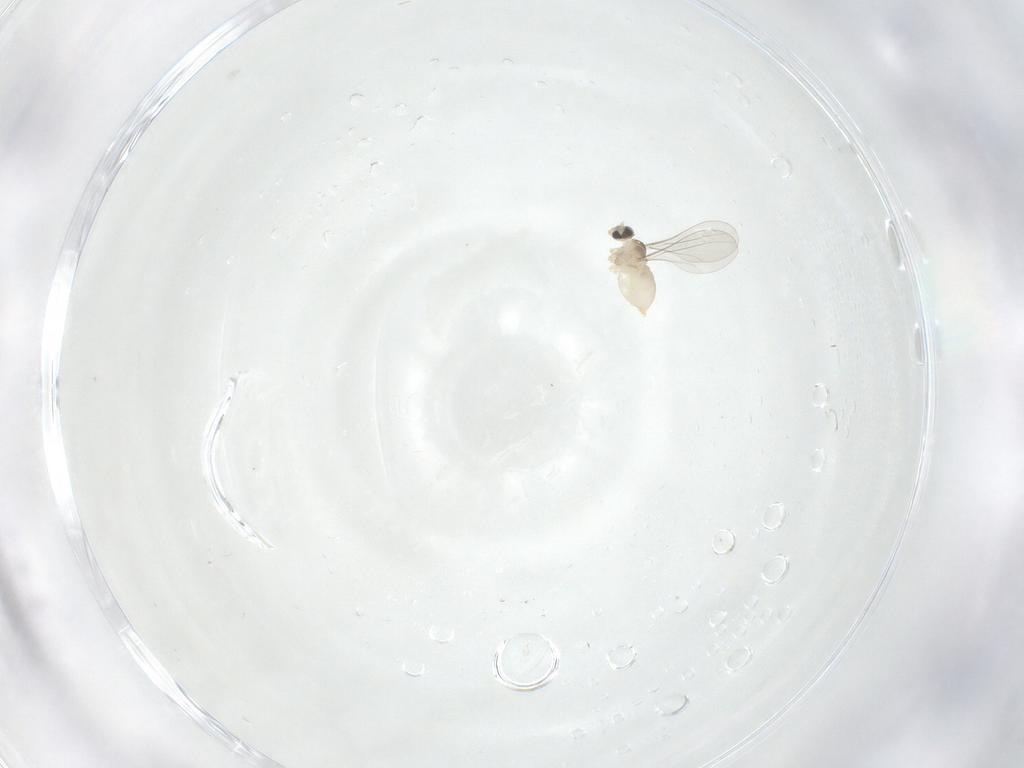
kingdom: Animalia
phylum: Arthropoda
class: Insecta
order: Diptera
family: Cecidomyiidae
